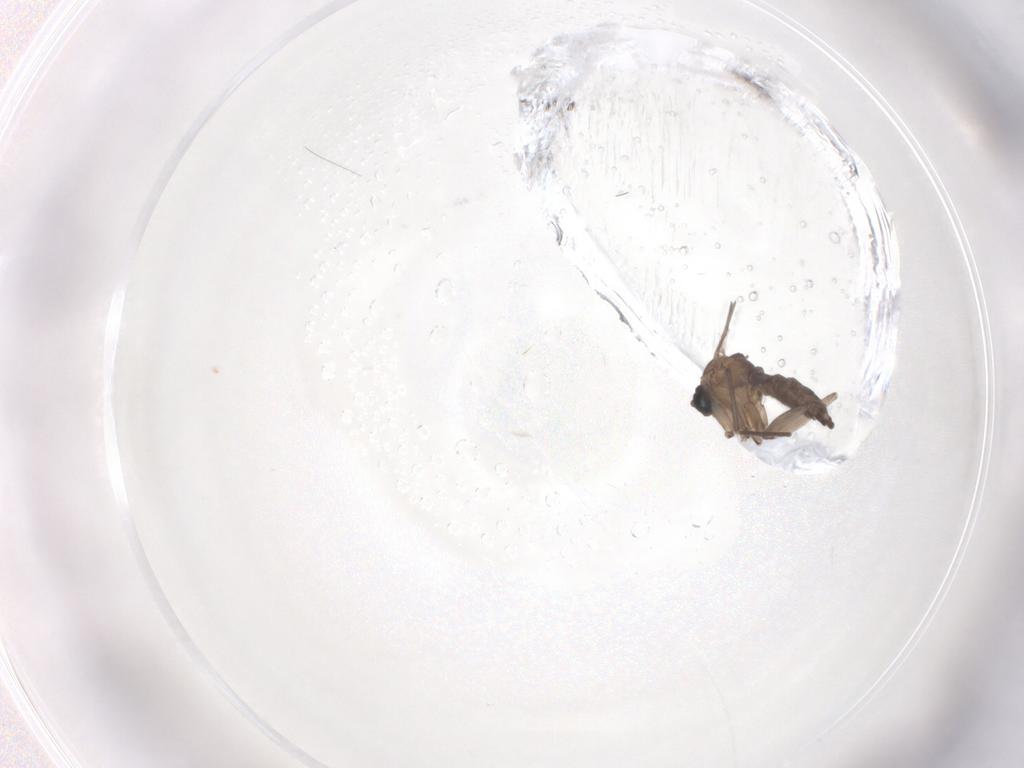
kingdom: Animalia
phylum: Arthropoda
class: Insecta
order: Diptera
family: Sciaridae
